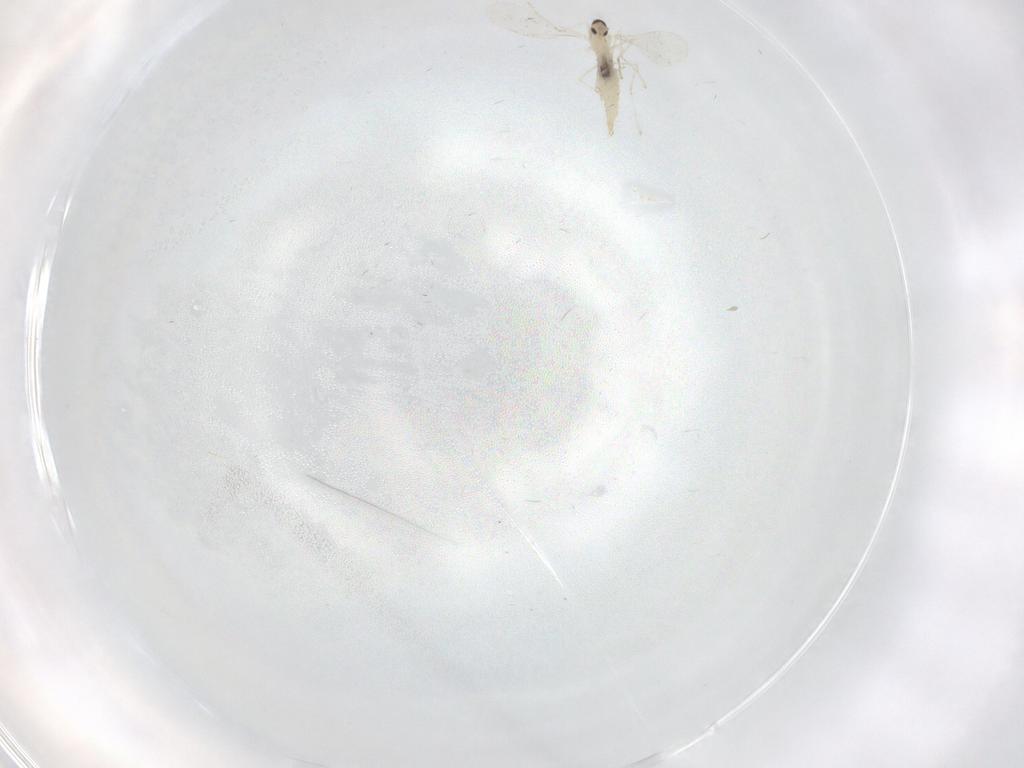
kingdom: Animalia
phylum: Arthropoda
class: Insecta
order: Diptera
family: Cecidomyiidae
